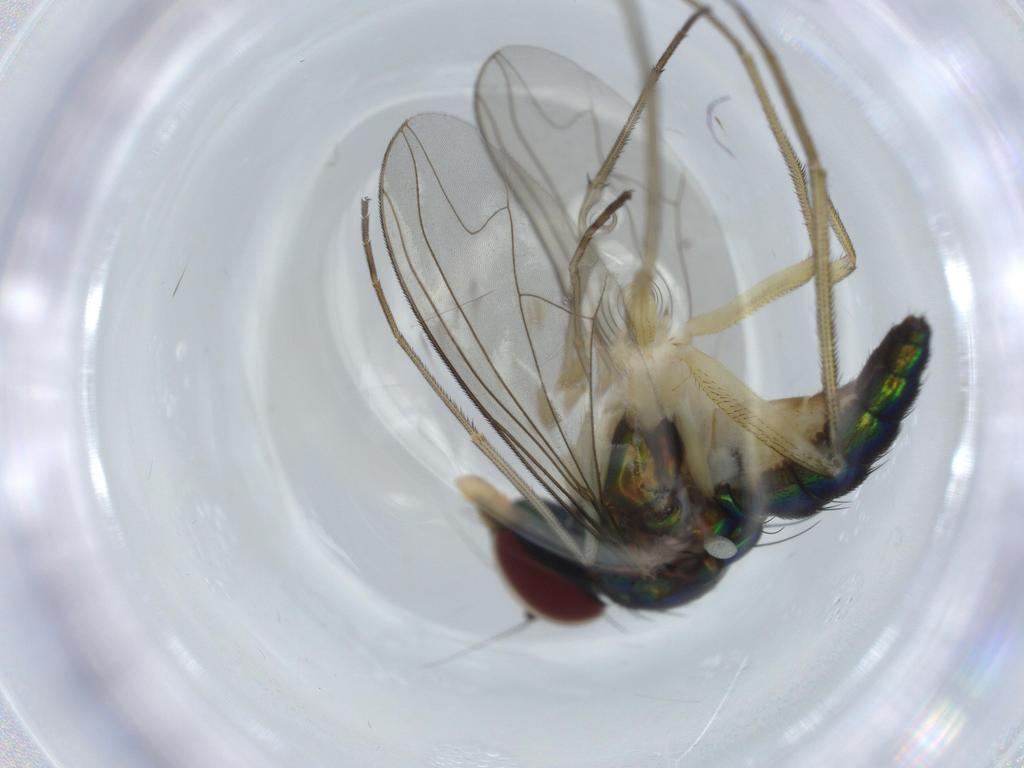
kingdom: Animalia
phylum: Arthropoda
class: Insecta
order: Diptera
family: Dolichopodidae
